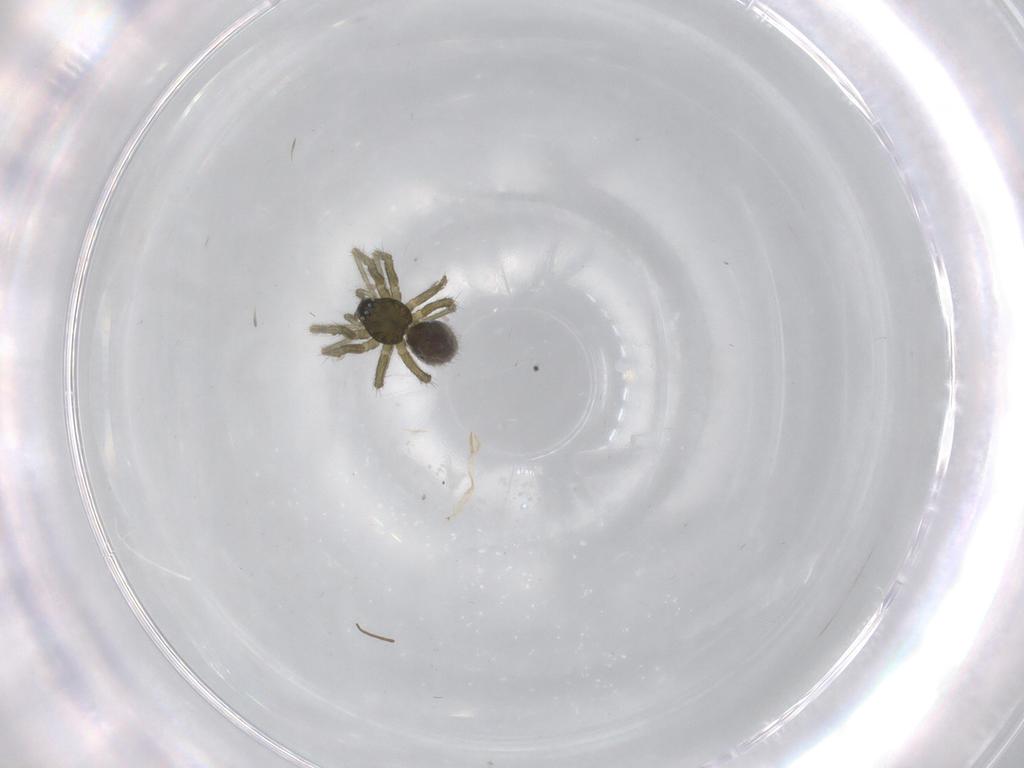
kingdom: Animalia
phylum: Arthropoda
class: Arachnida
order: Araneae
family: Linyphiidae
